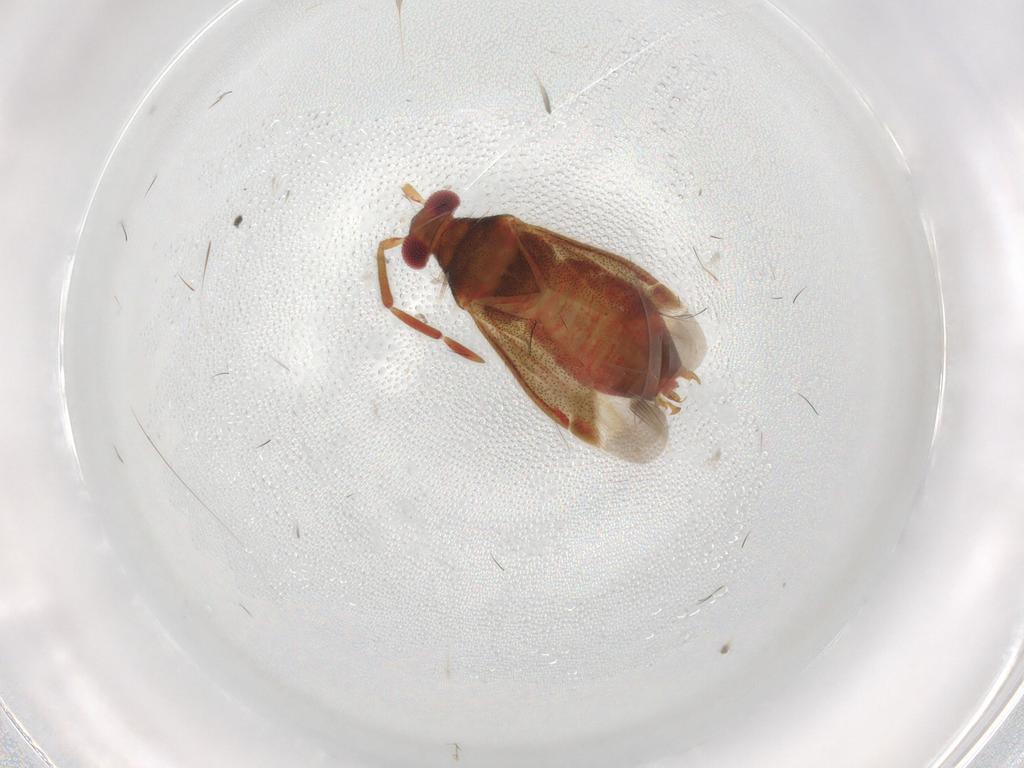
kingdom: Animalia
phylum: Arthropoda
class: Insecta
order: Hemiptera
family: Miridae
